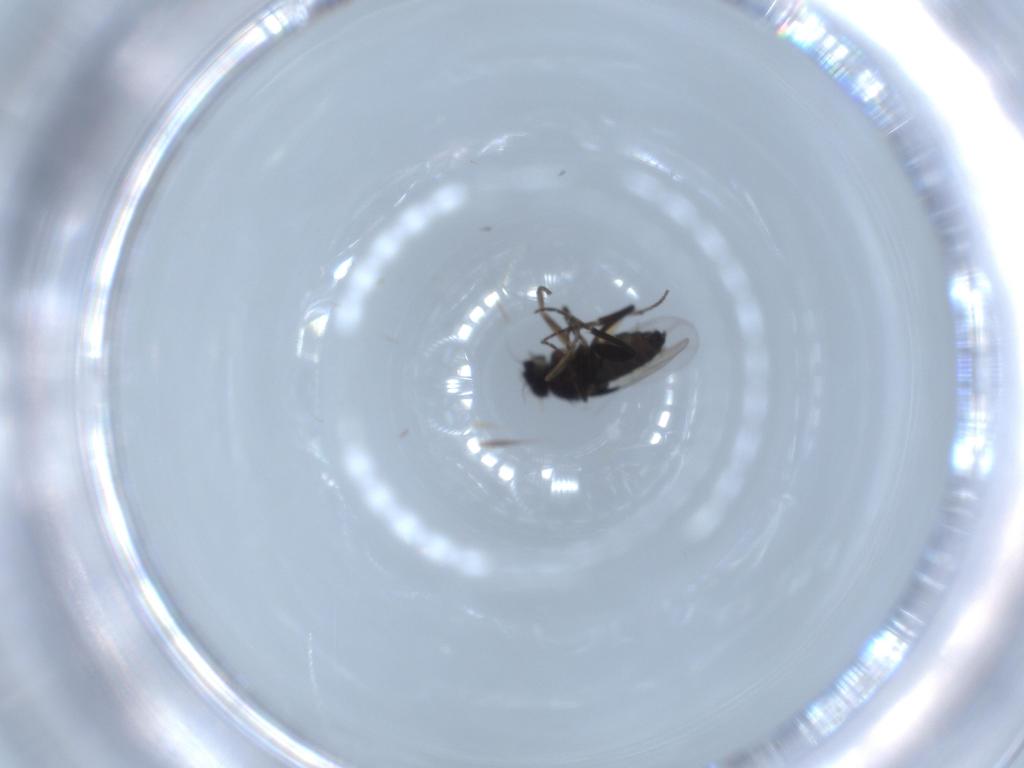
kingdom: Animalia
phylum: Arthropoda
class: Insecta
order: Diptera
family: Phoridae
